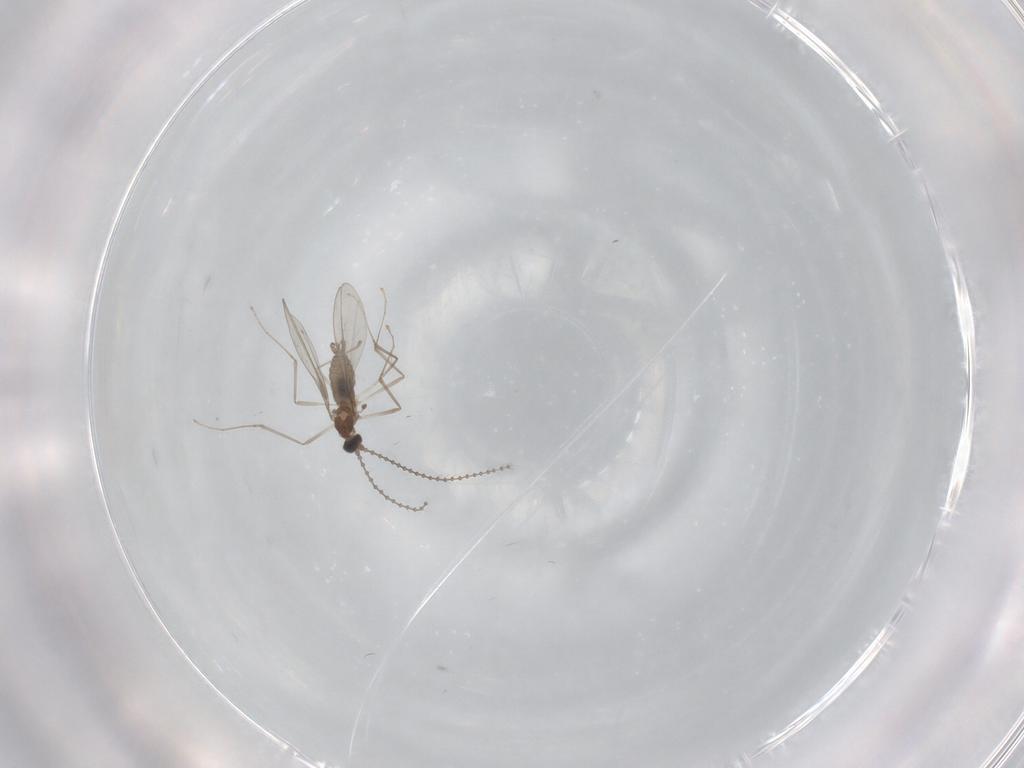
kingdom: Animalia
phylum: Arthropoda
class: Insecta
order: Diptera
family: Cecidomyiidae
